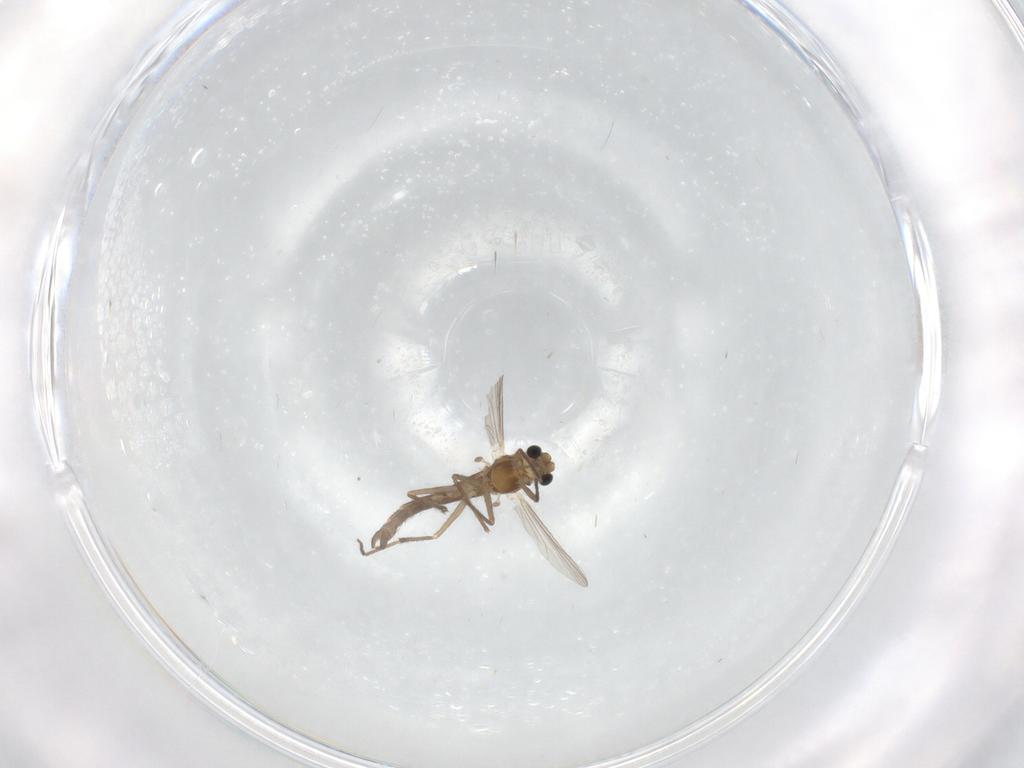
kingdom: Animalia
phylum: Arthropoda
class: Insecta
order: Diptera
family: Chironomidae
